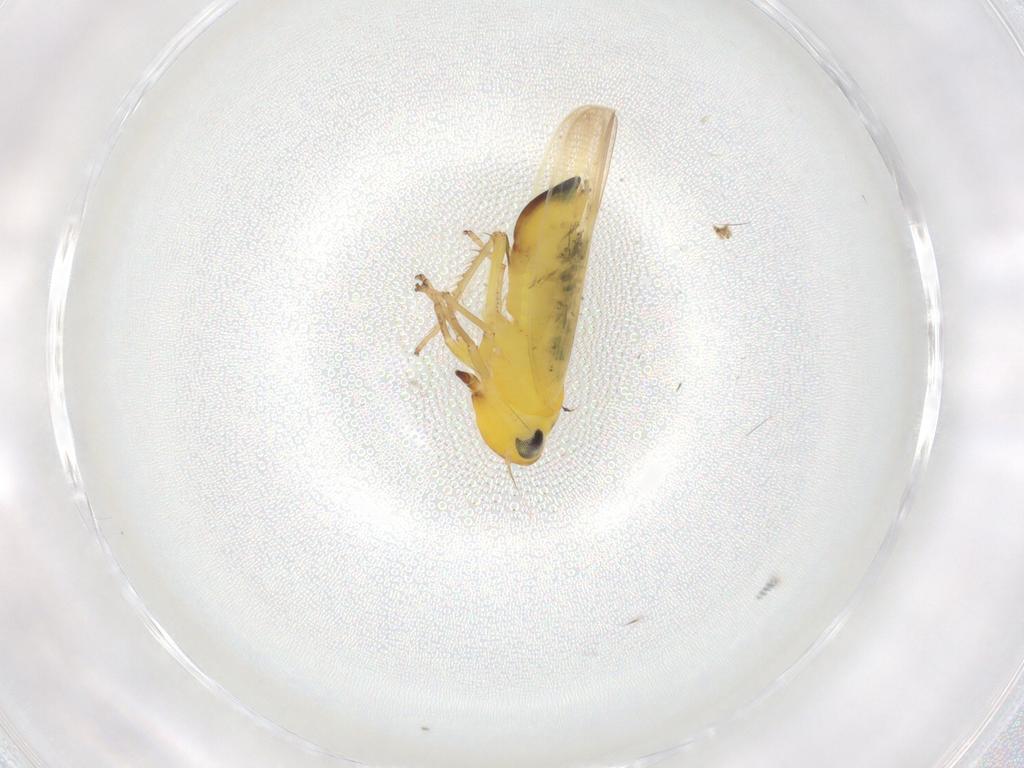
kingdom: Animalia
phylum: Arthropoda
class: Insecta
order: Hemiptera
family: Cicadellidae
